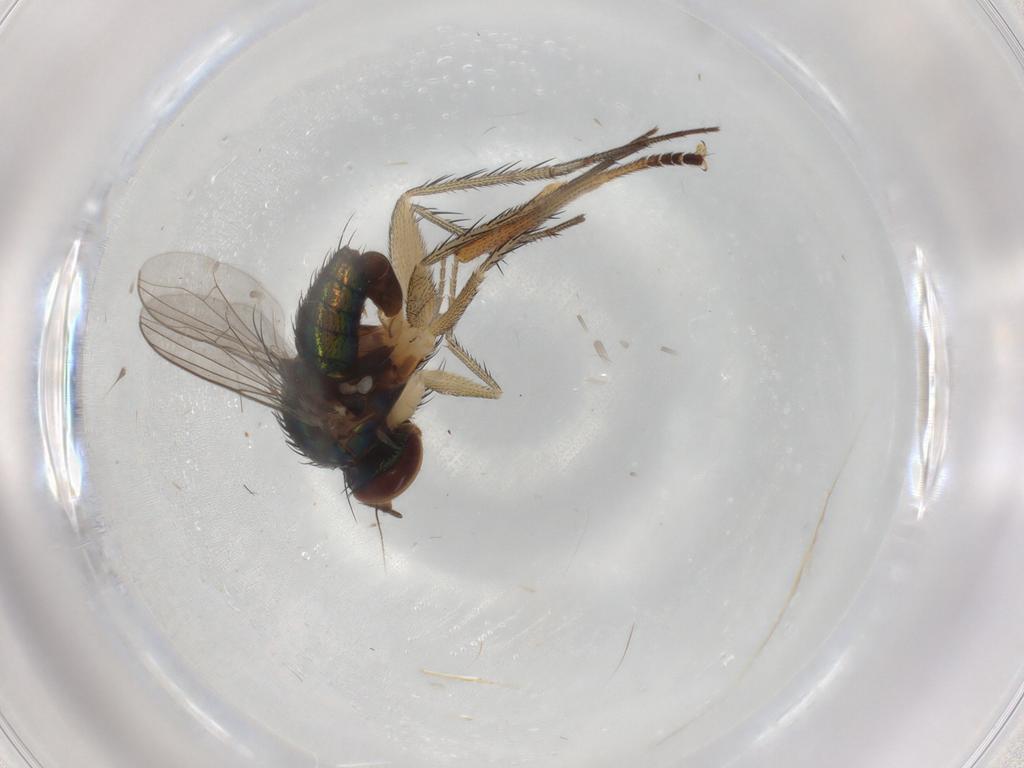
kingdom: Animalia
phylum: Arthropoda
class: Insecta
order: Diptera
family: Dolichopodidae
